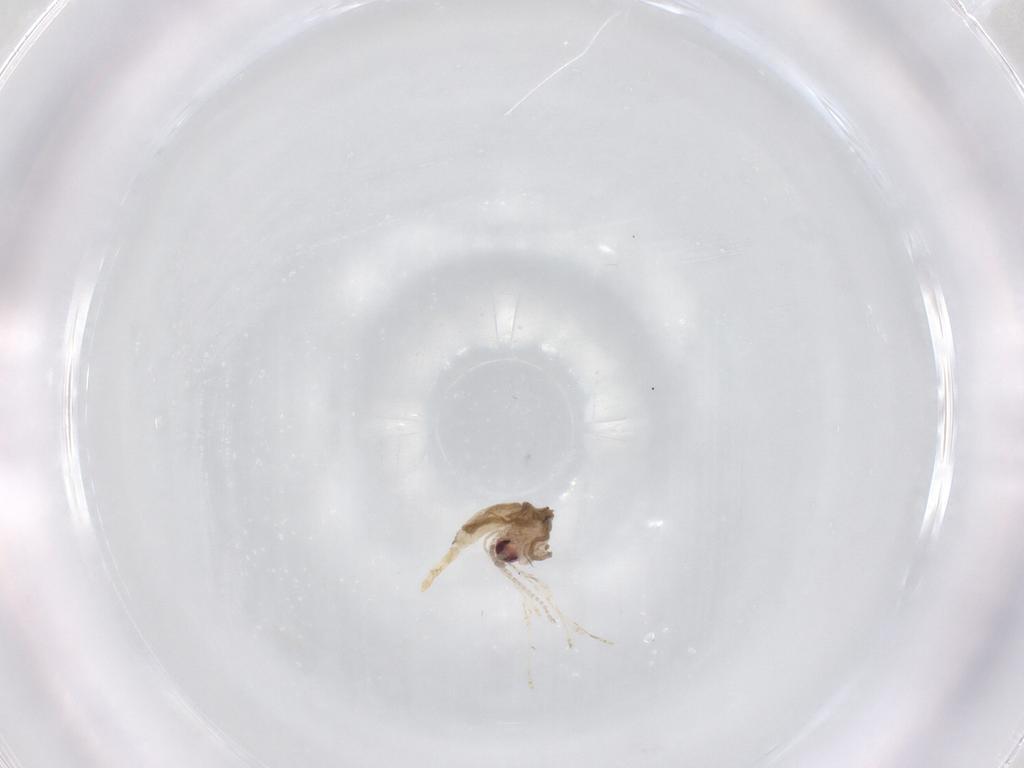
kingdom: Animalia
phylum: Arthropoda
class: Insecta
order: Diptera
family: Cecidomyiidae
